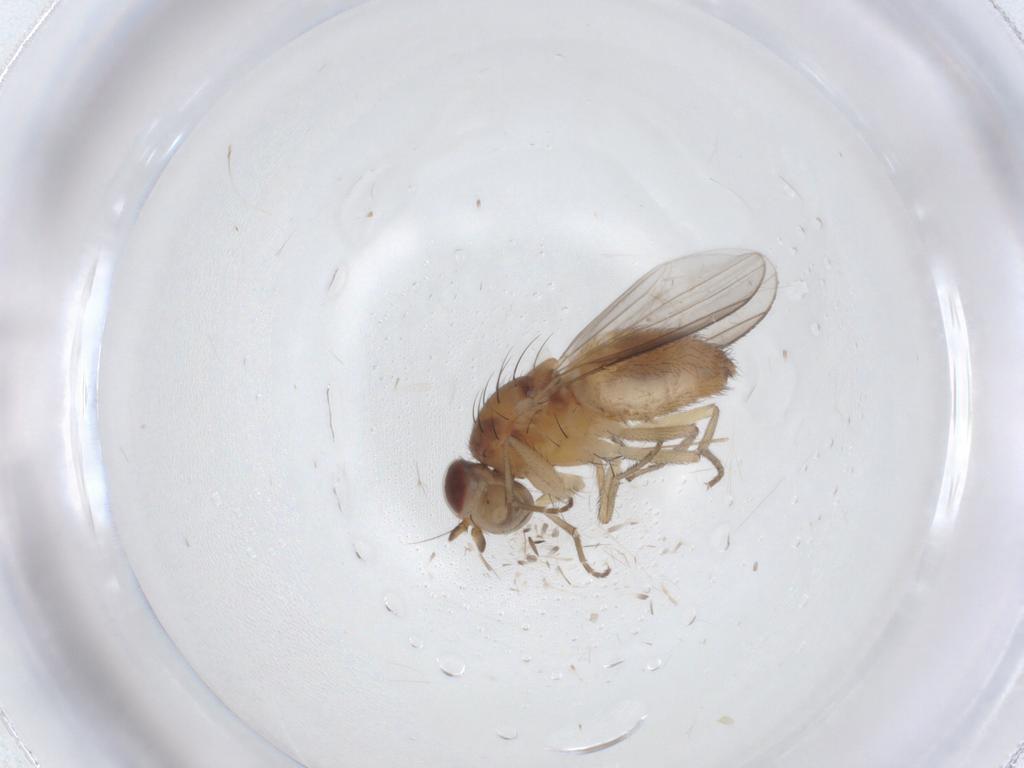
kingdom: Animalia
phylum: Arthropoda
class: Insecta
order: Diptera
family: Heleomyzidae
